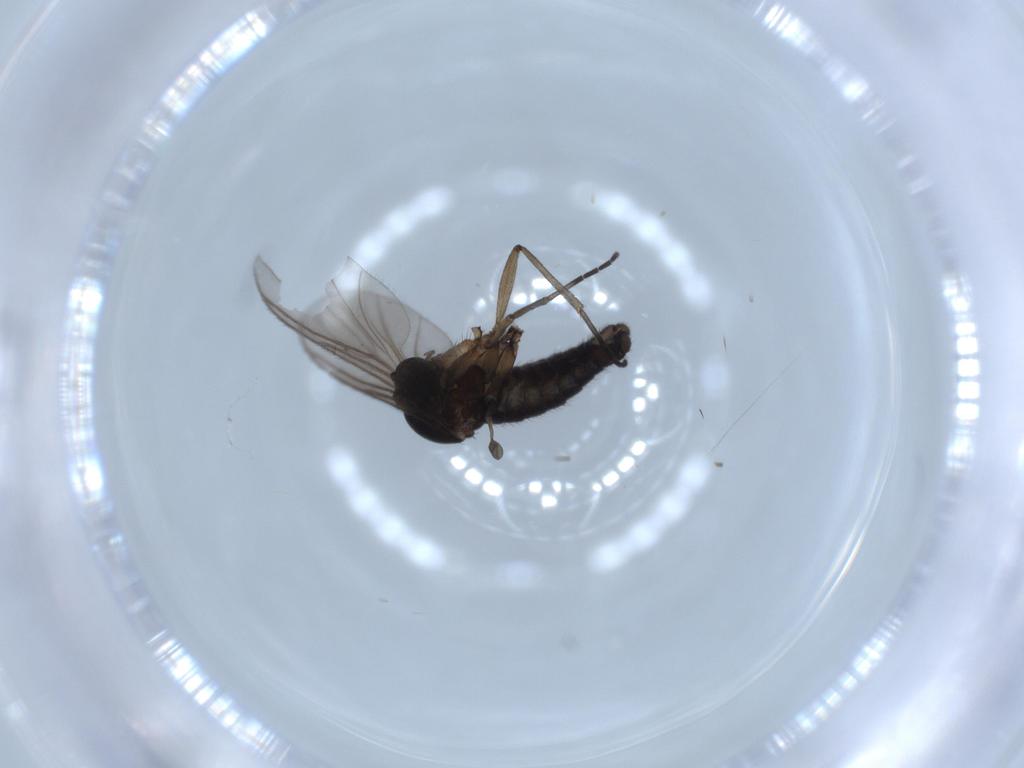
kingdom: Animalia
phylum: Arthropoda
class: Insecta
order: Diptera
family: Sciaridae
